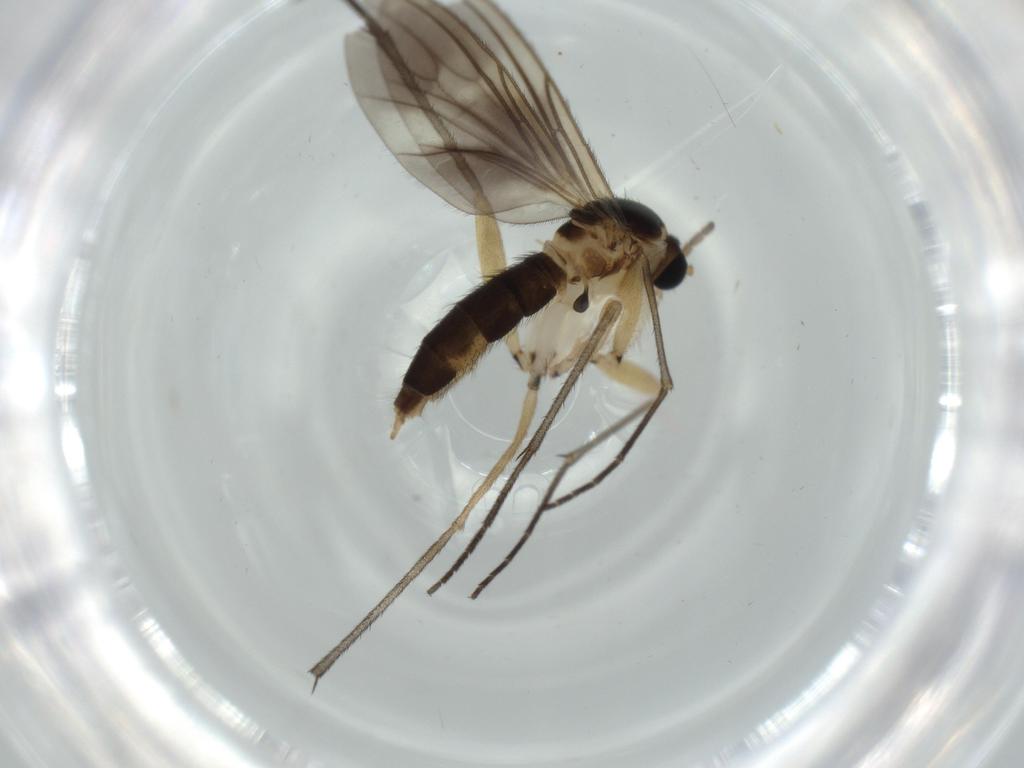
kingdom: Animalia
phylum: Arthropoda
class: Insecta
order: Diptera
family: Sciaridae
